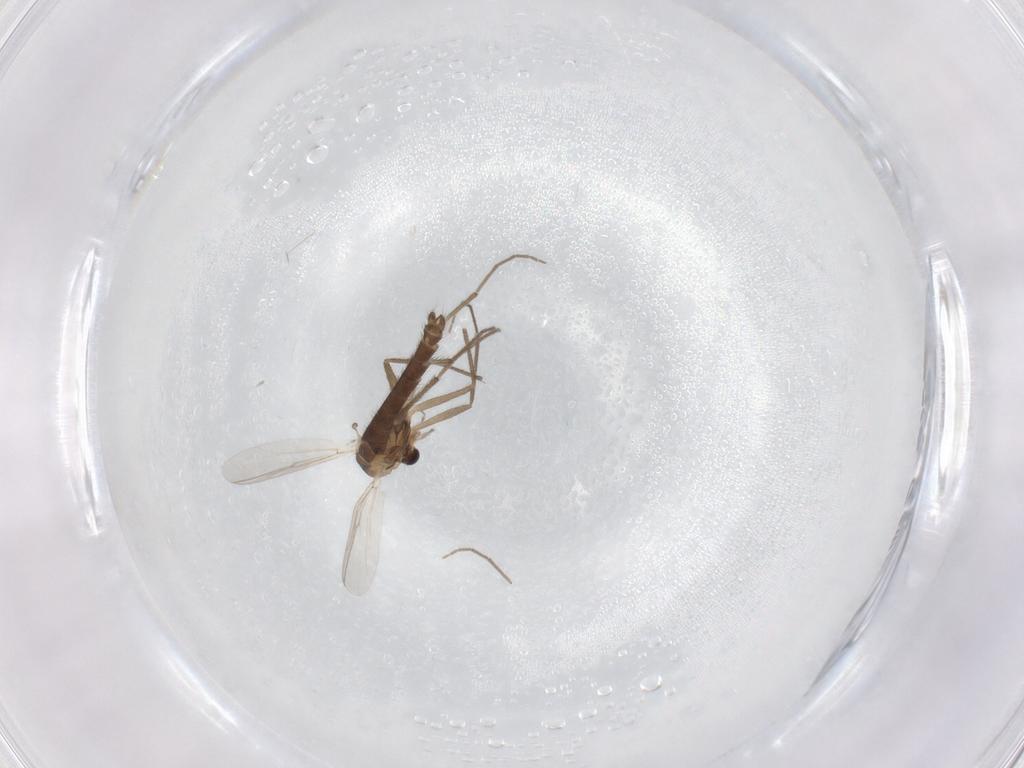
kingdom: Animalia
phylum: Arthropoda
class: Insecta
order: Diptera
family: Chironomidae
